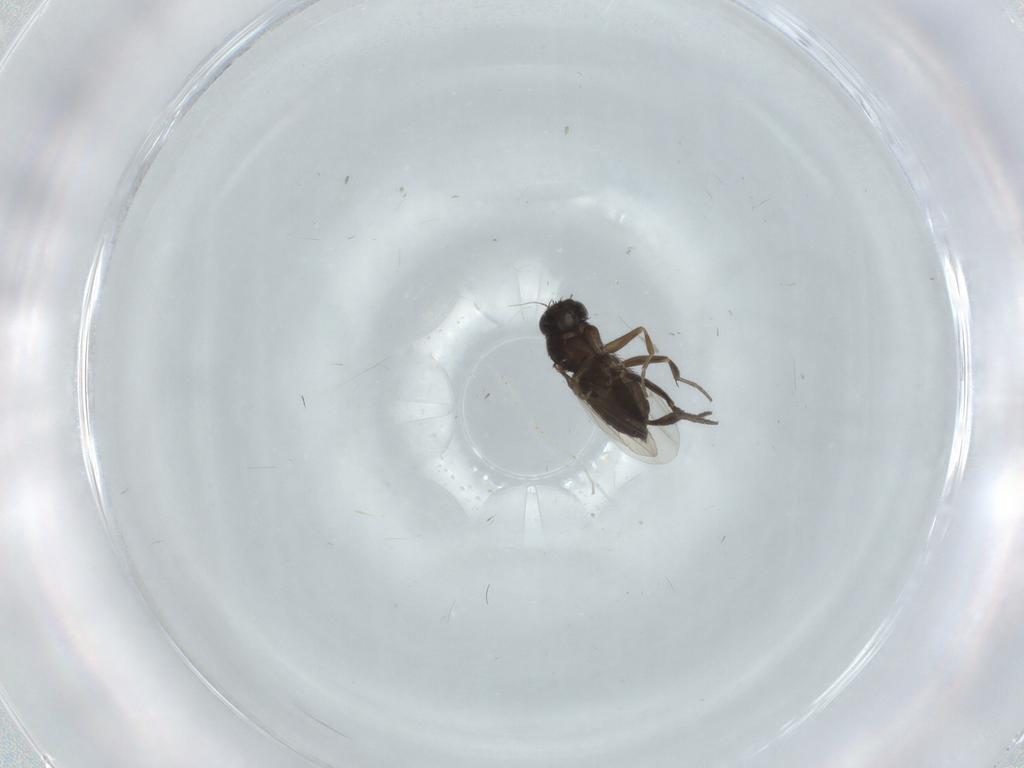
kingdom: Animalia
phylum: Arthropoda
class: Insecta
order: Diptera
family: Phoridae
